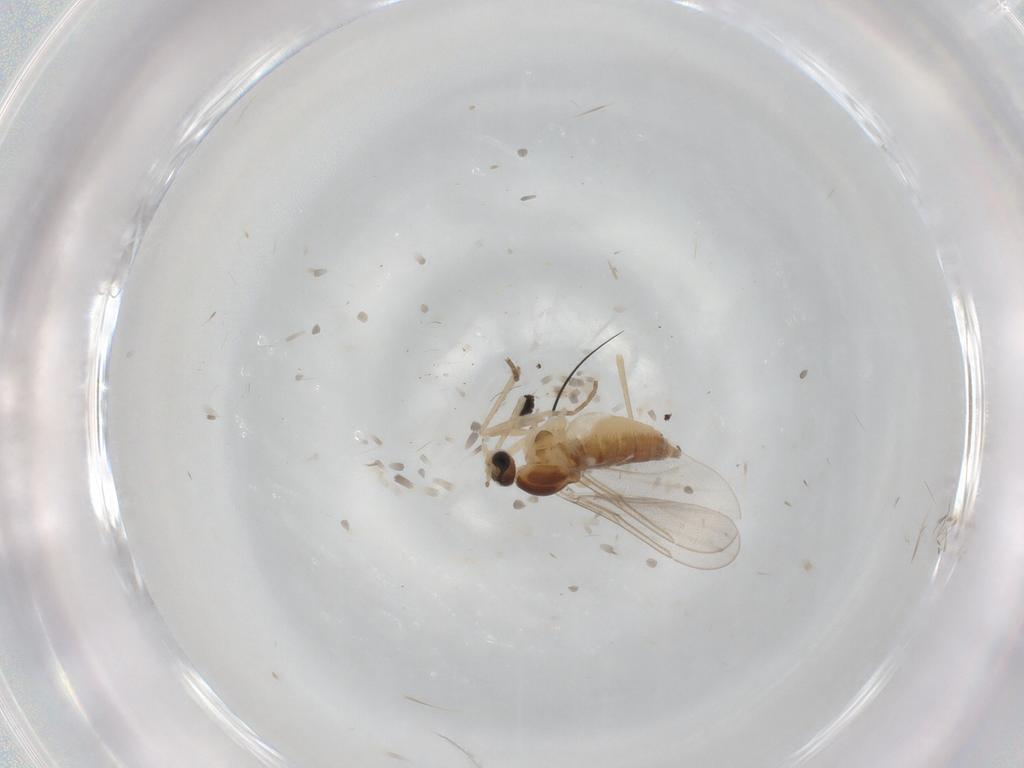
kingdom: Animalia
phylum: Arthropoda
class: Insecta
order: Diptera
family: Cecidomyiidae
